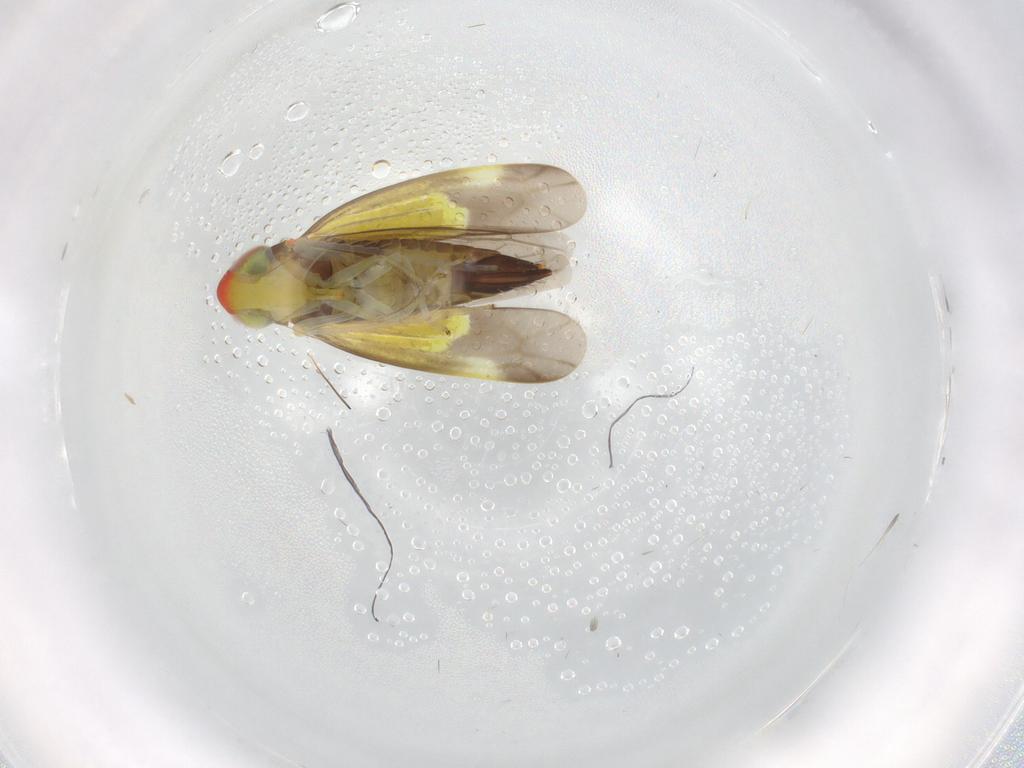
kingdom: Animalia
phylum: Arthropoda
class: Insecta
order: Hemiptera
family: Cicadellidae
